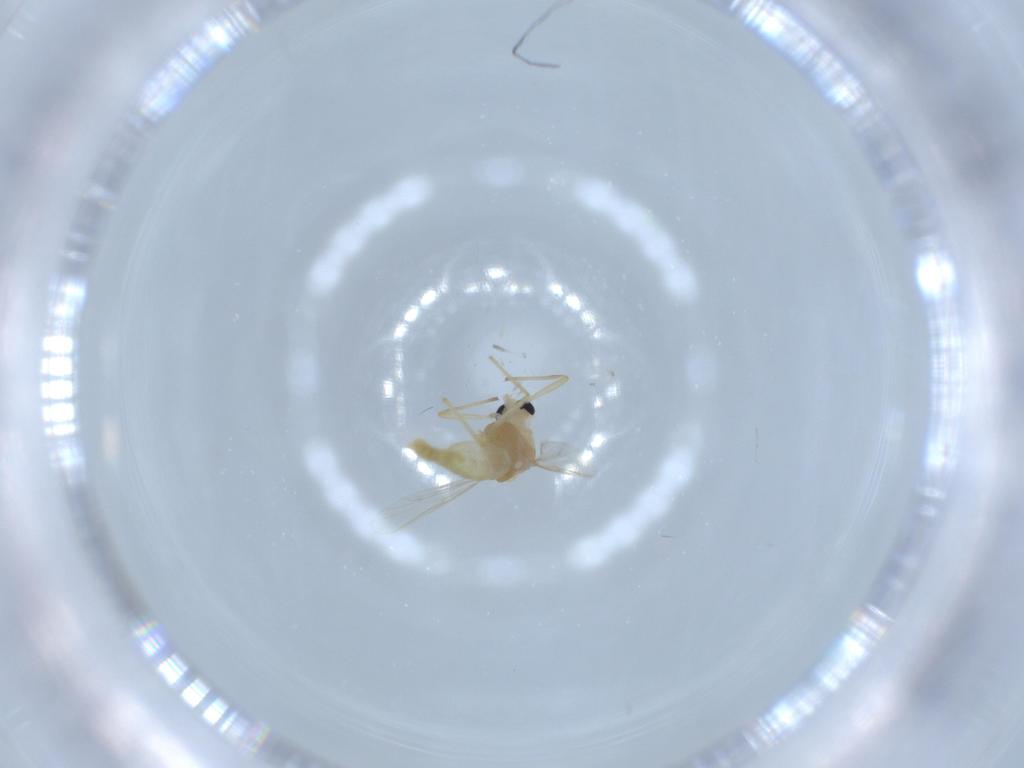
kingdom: Animalia
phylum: Arthropoda
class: Insecta
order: Diptera
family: Chironomidae
